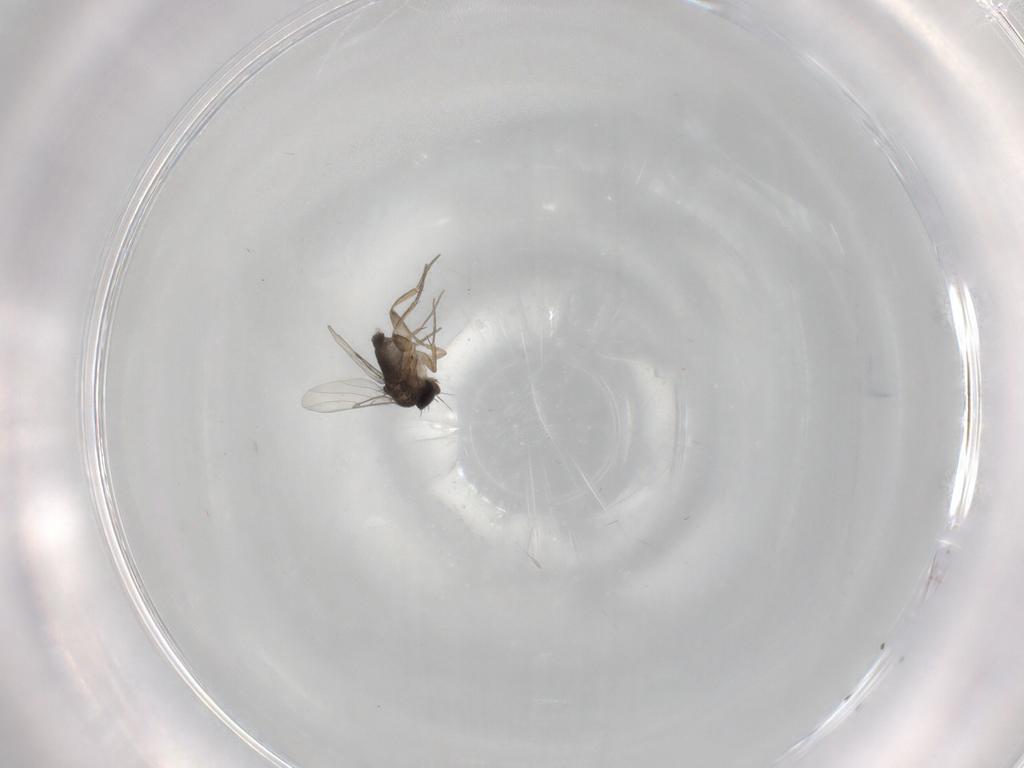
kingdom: Animalia
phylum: Arthropoda
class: Insecta
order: Diptera
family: Phoridae
